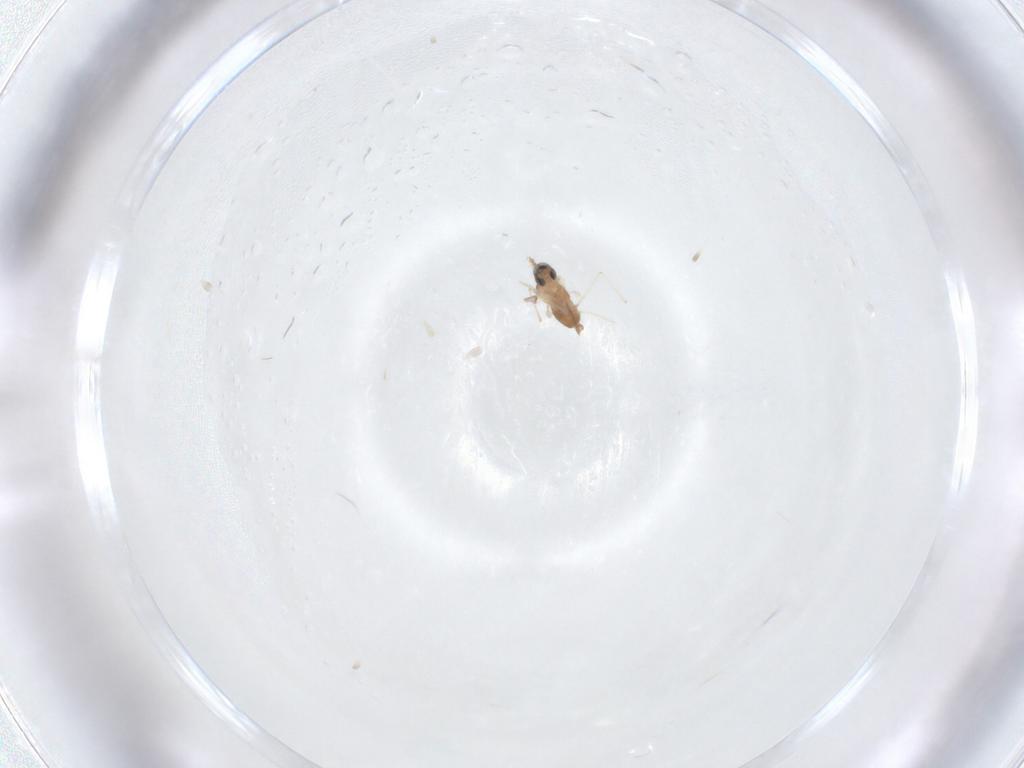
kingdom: Animalia
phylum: Arthropoda
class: Insecta
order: Diptera
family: Cecidomyiidae
